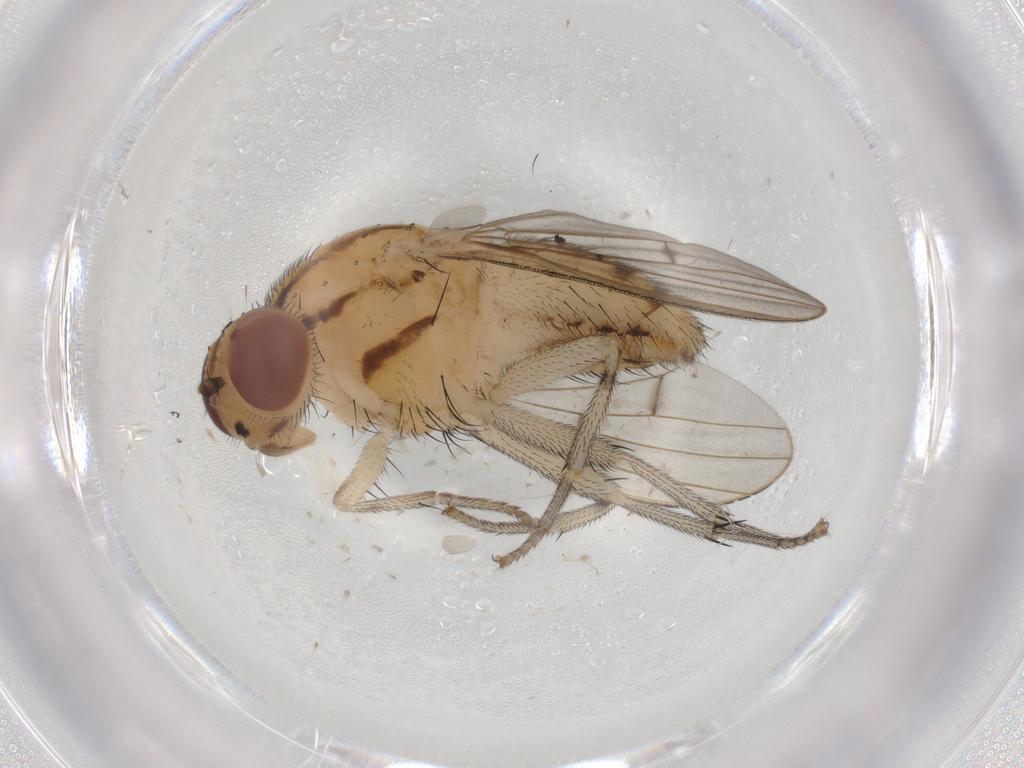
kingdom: Animalia
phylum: Arthropoda
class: Insecta
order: Diptera
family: Lauxaniidae
